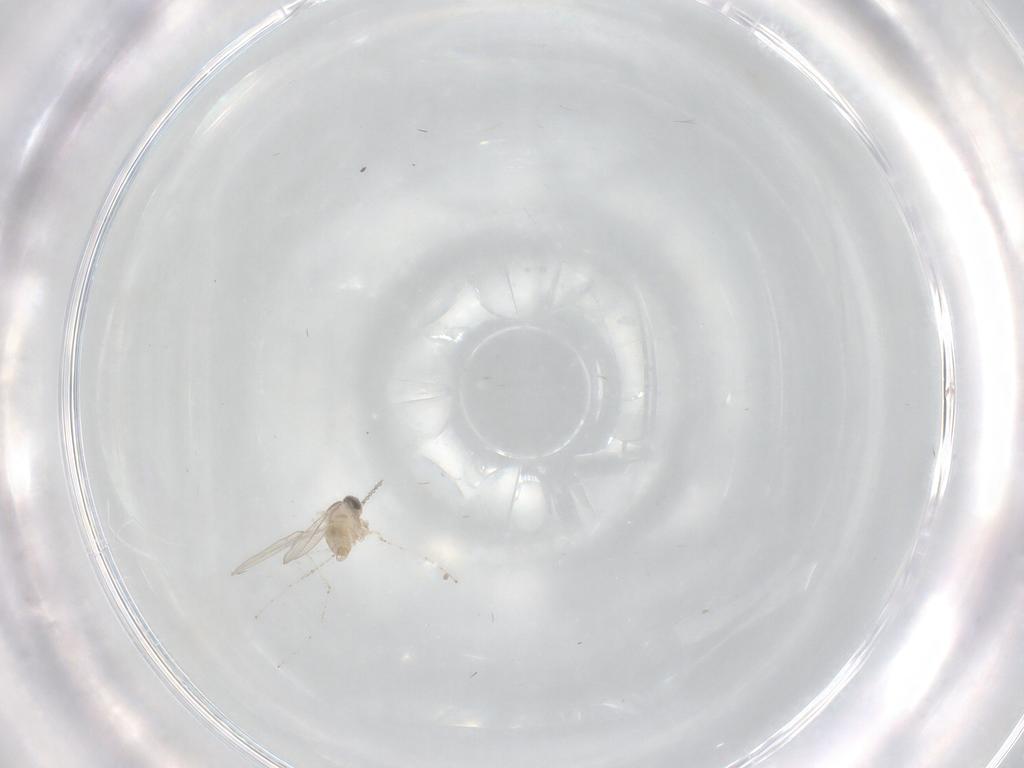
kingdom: Animalia
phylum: Arthropoda
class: Insecta
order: Diptera
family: Cecidomyiidae
